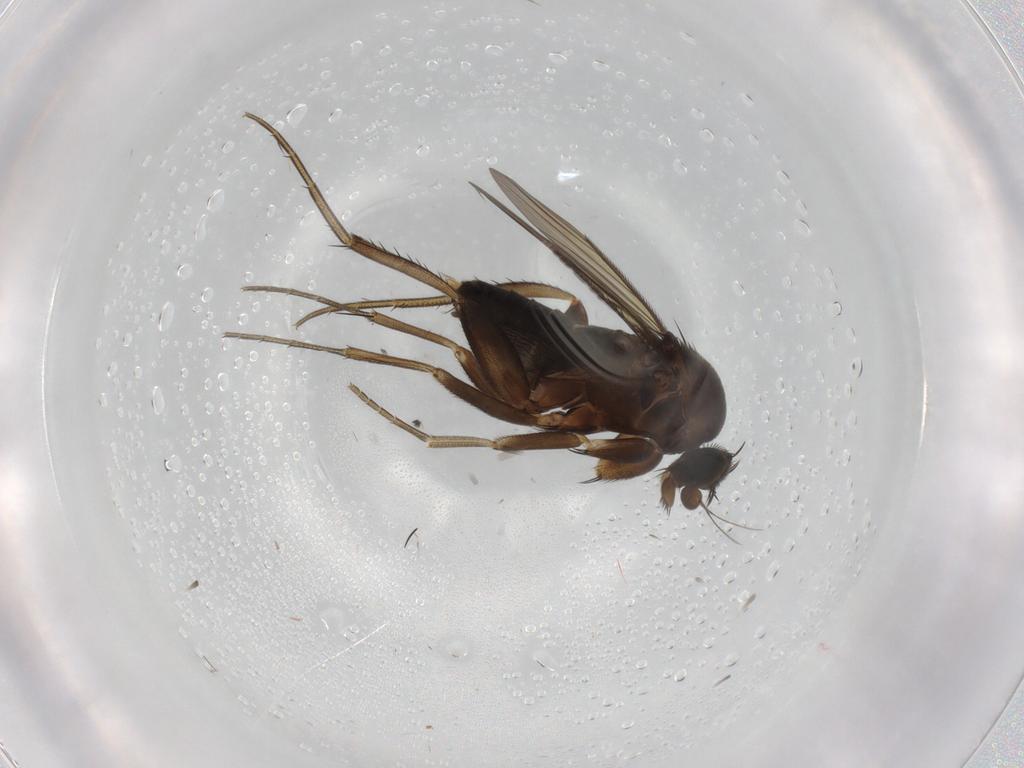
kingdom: Animalia
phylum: Arthropoda
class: Insecta
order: Diptera
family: Phoridae
